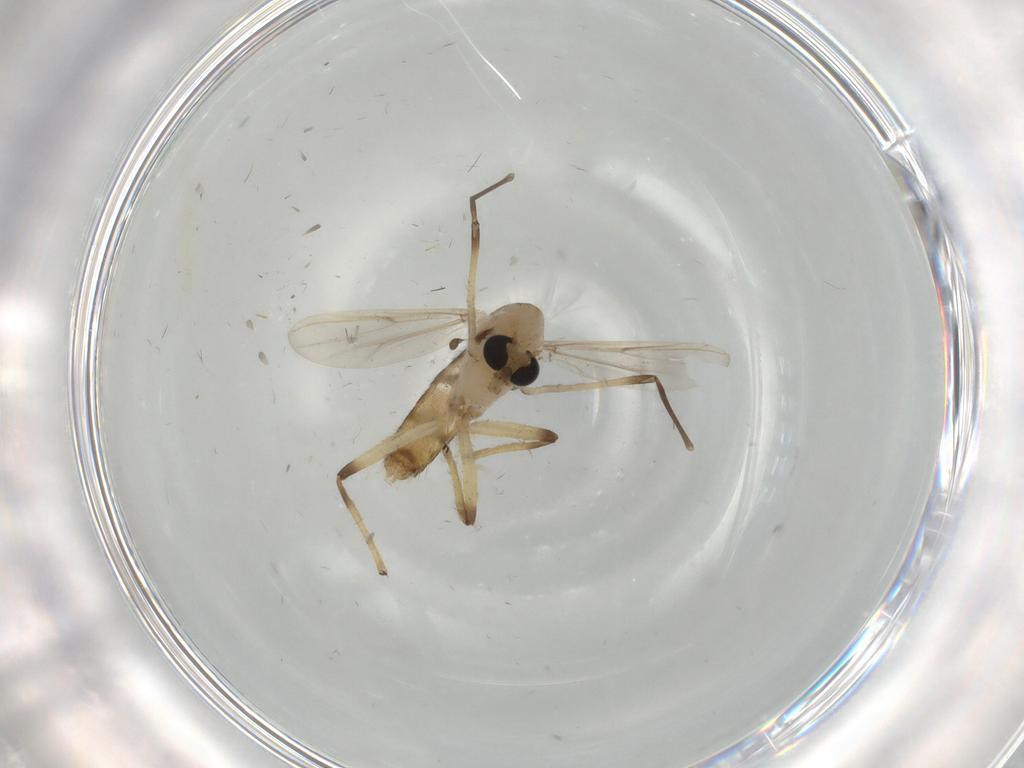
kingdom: Animalia
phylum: Arthropoda
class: Insecta
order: Diptera
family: Chironomidae
